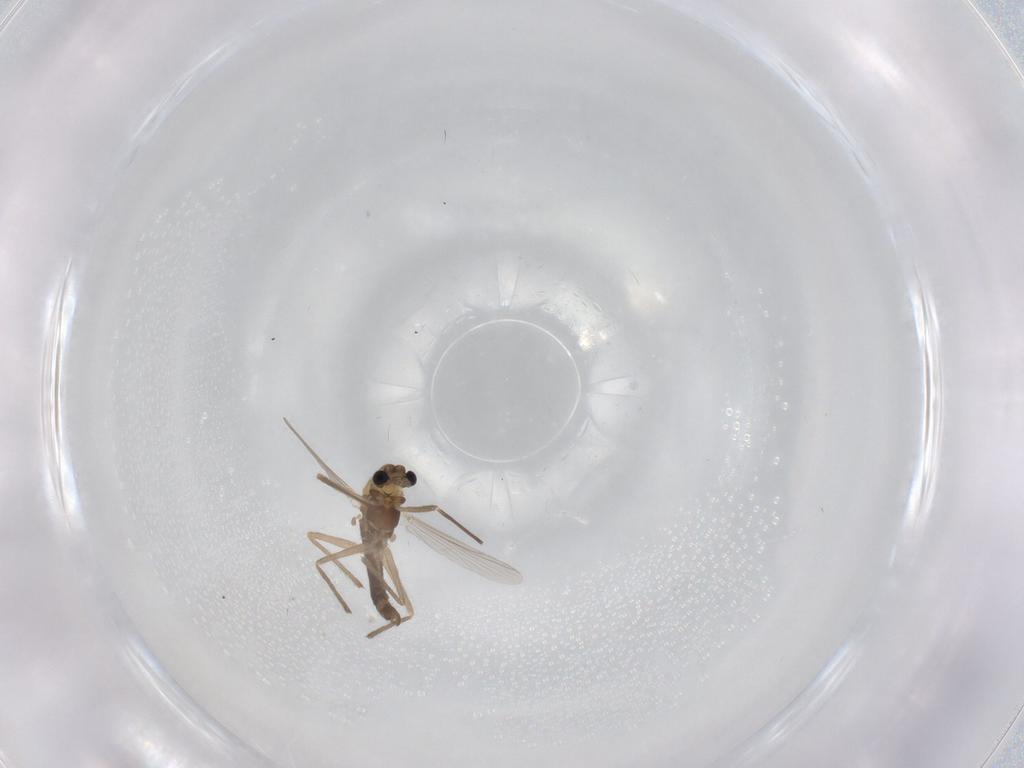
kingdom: Animalia
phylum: Arthropoda
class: Insecta
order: Diptera
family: Chironomidae
